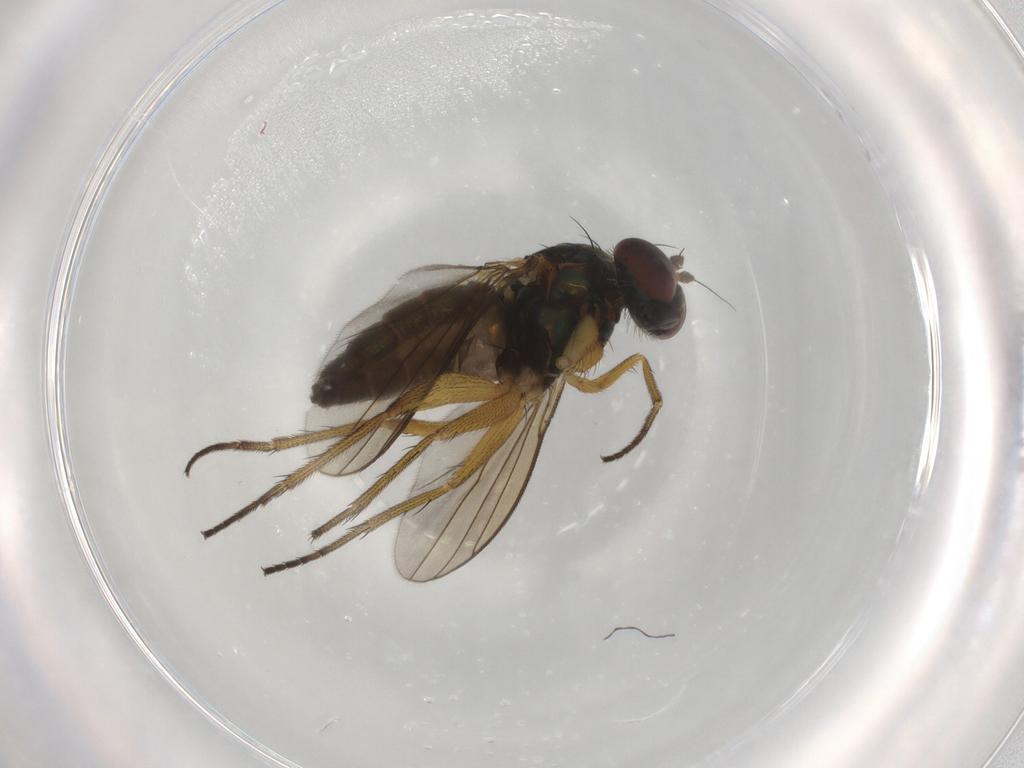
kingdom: Animalia
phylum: Arthropoda
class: Insecta
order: Diptera
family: Dolichopodidae
